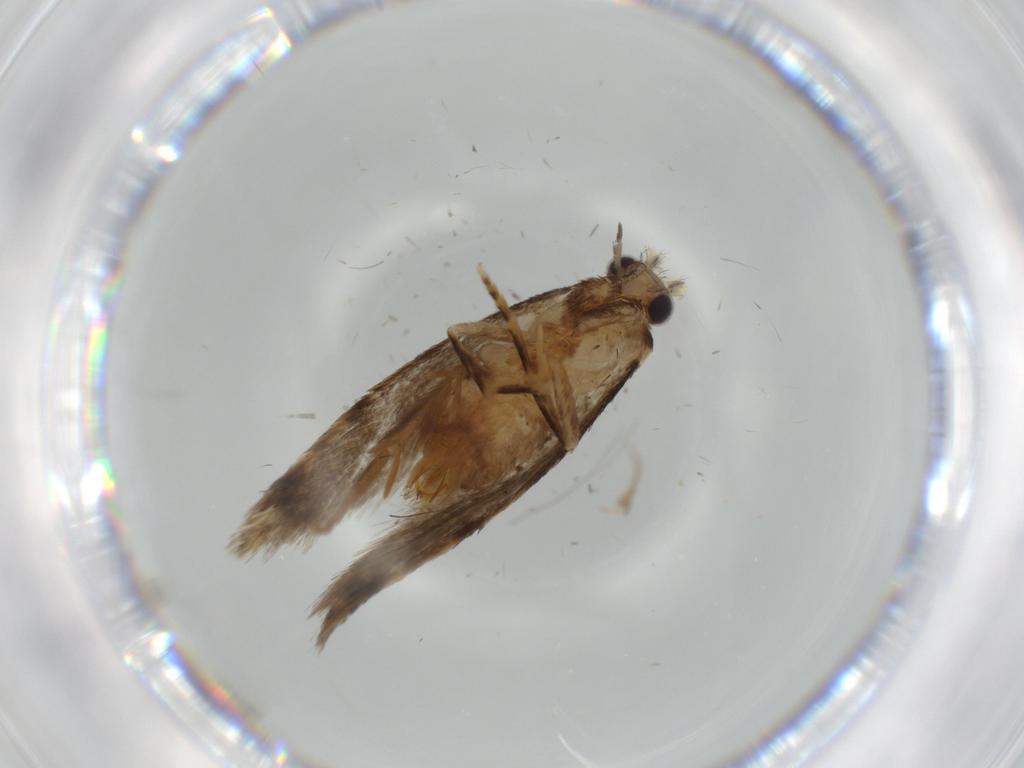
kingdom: Animalia
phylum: Arthropoda
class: Insecta
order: Lepidoptera
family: Tineidae
